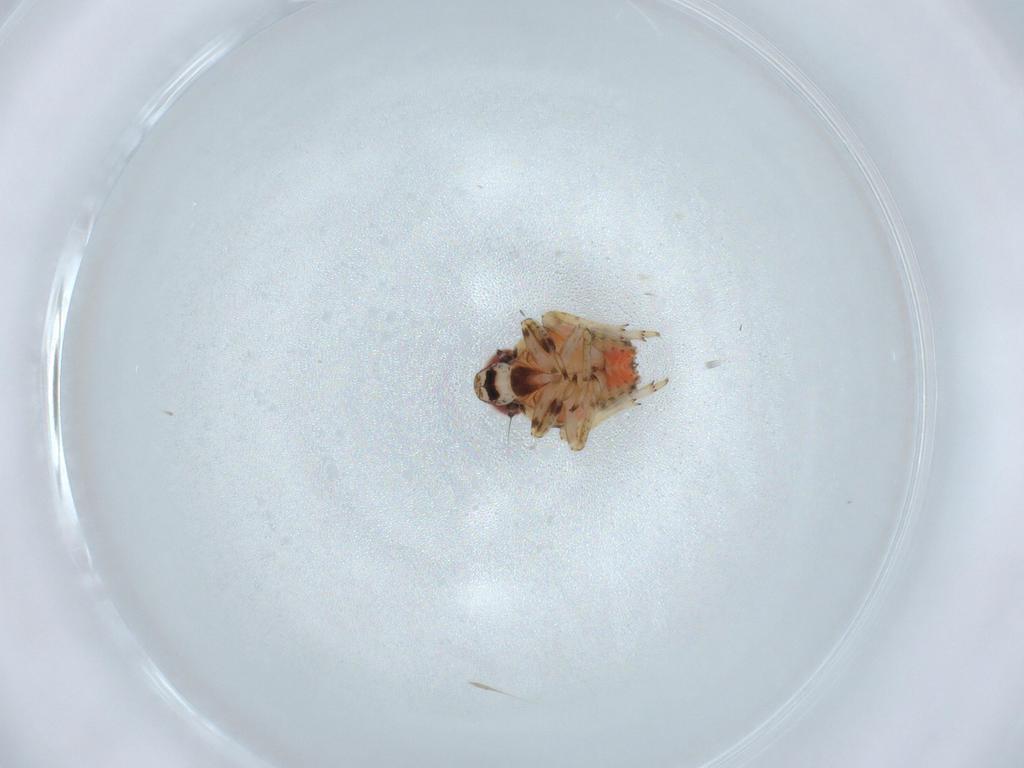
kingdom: Animalia
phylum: Arthropoda
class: Insecta
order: Hemiptera
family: Issidae
